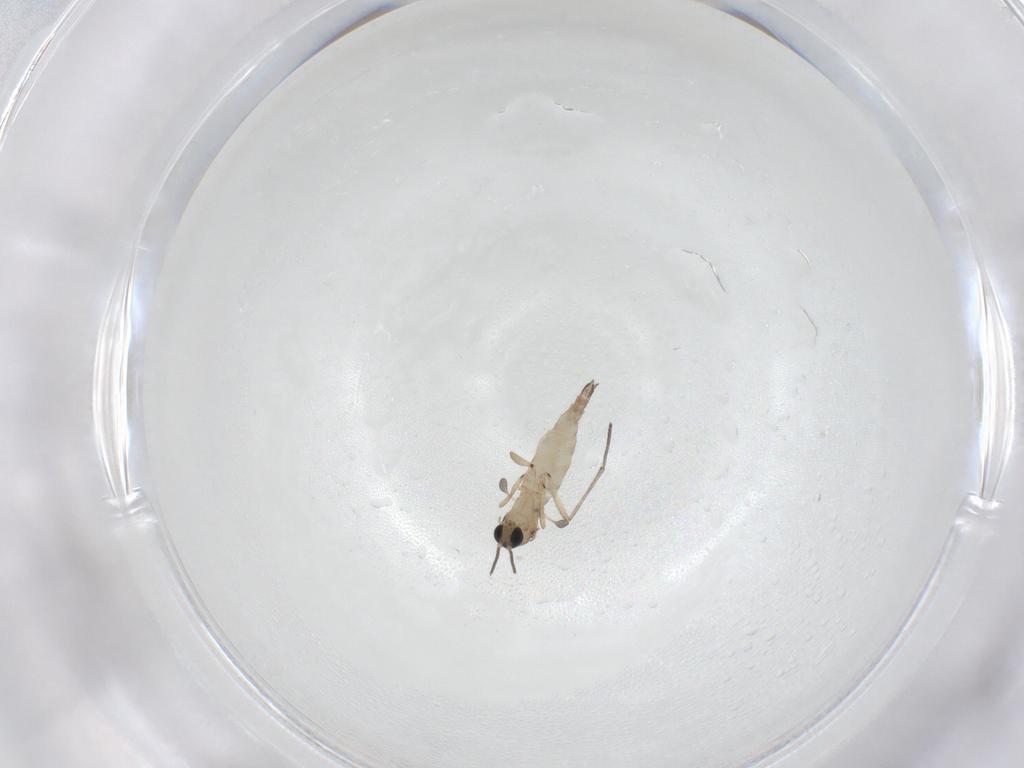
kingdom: Animalia
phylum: Arthropoda
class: Insecta
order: Diptera
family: Sciaridae
